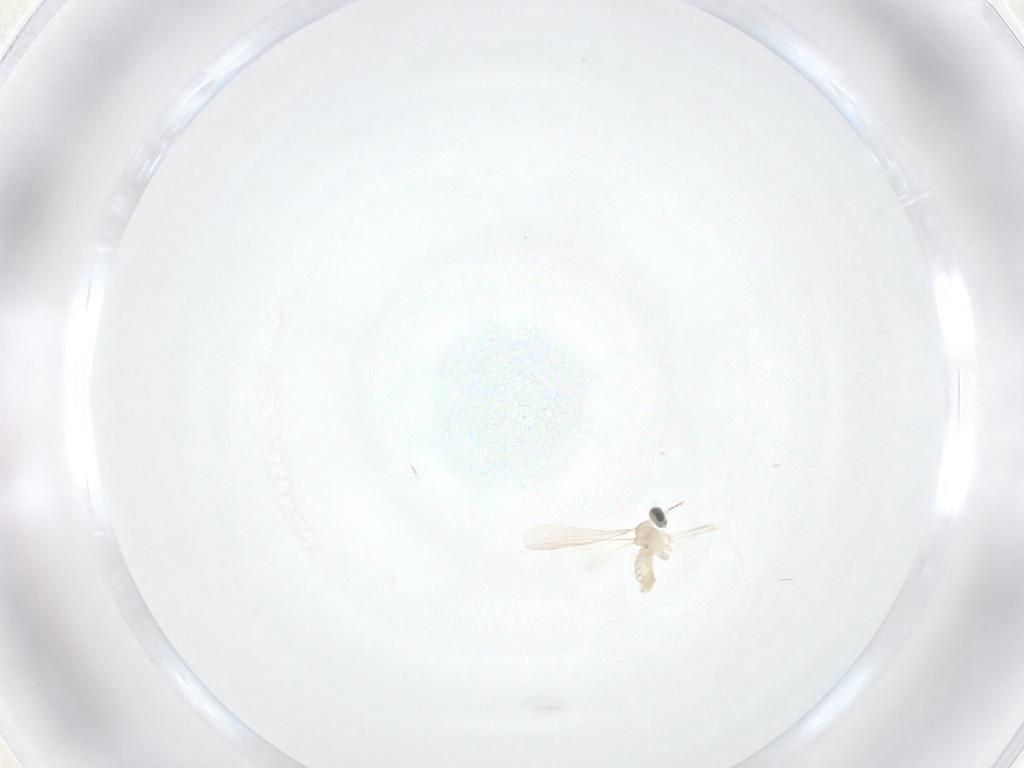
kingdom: Animalia
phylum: Arthropoda
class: Insecta
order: Diptera
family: Cecidomyiidae
